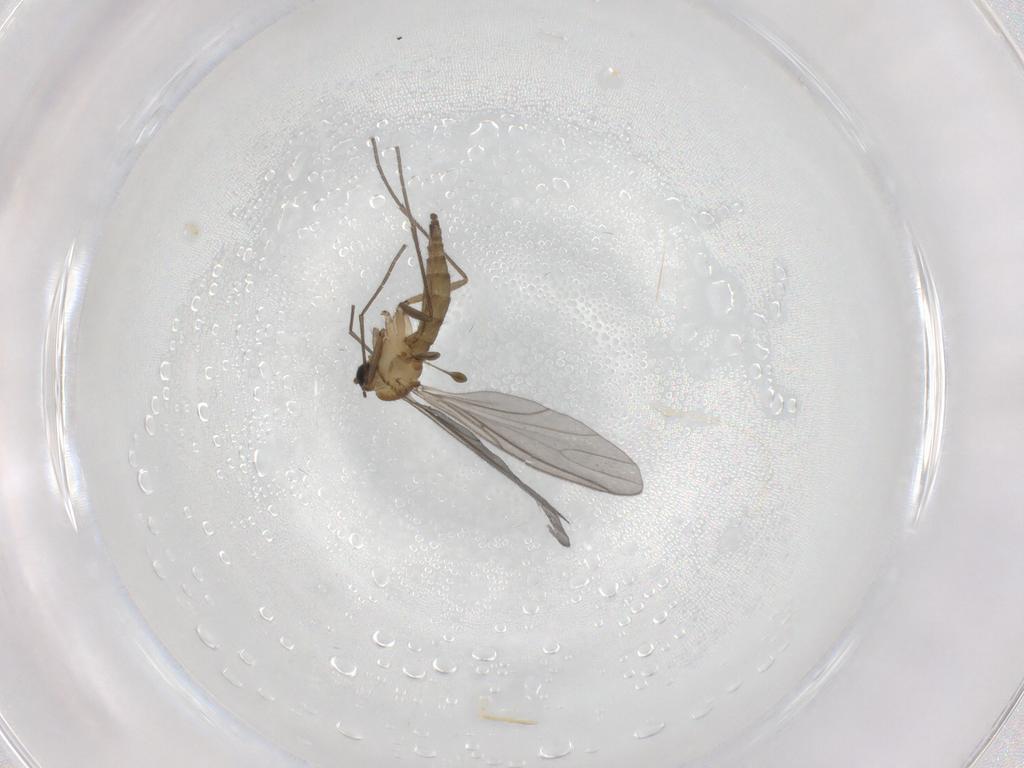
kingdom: Animalia
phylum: Arthropoda
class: Insecta
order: Diptera
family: Sciaridae
